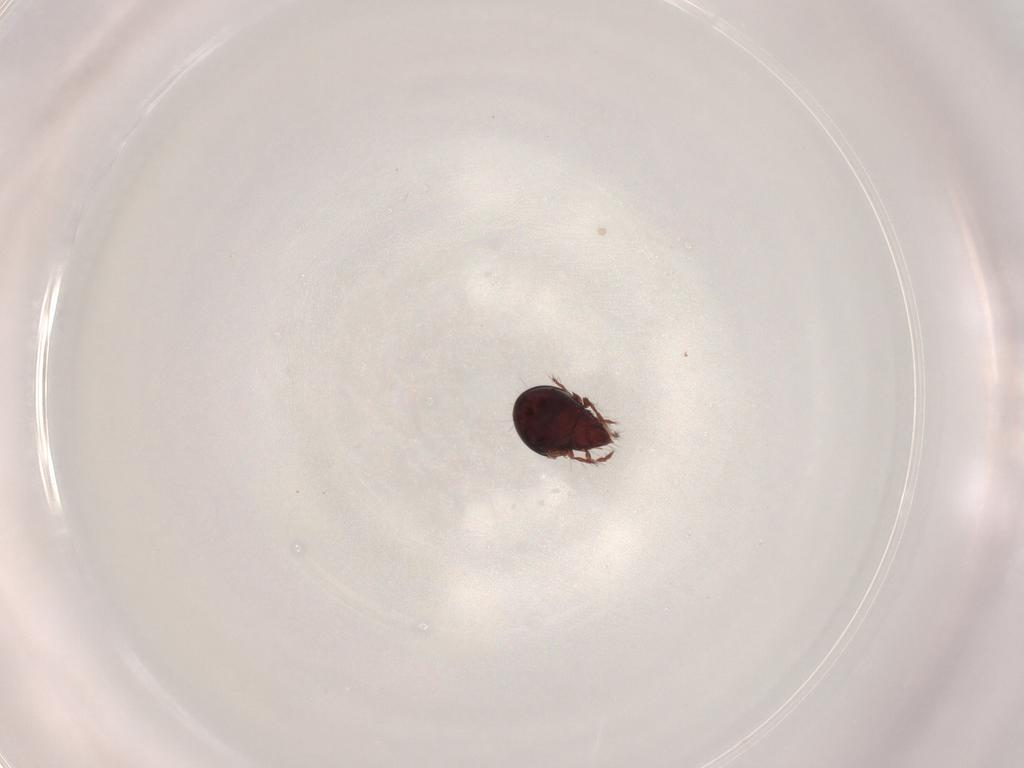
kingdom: Animalia
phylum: Arthropoda
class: Arachnida
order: Sarcoptiformes
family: Ceratoppiidae
